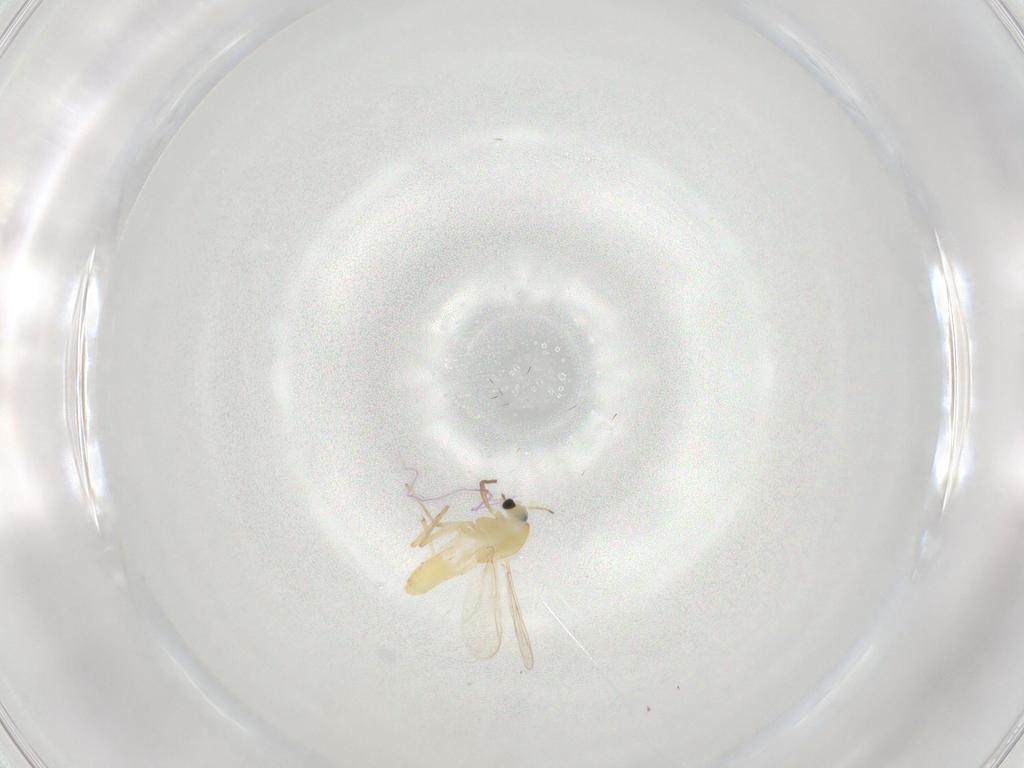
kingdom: Animalia
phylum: Arthropoda
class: Insecta
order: Diptera
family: Chironomidae
